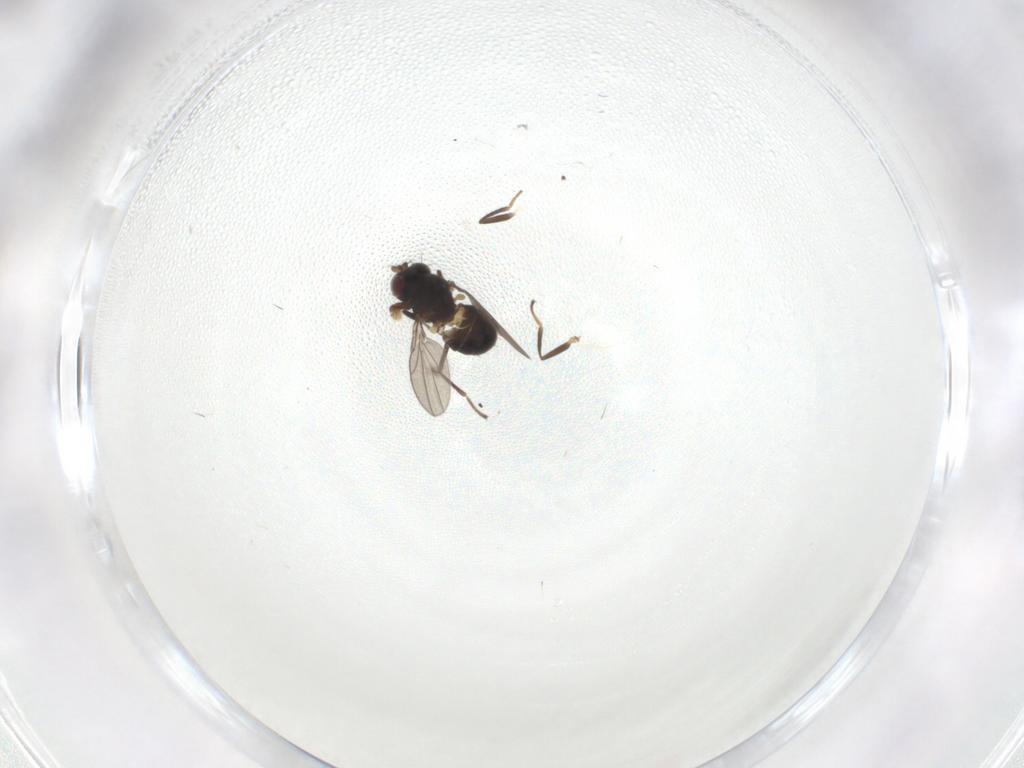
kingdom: Animalia
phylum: Arthropoda
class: Insecta
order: Diptera
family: Ephydridae
